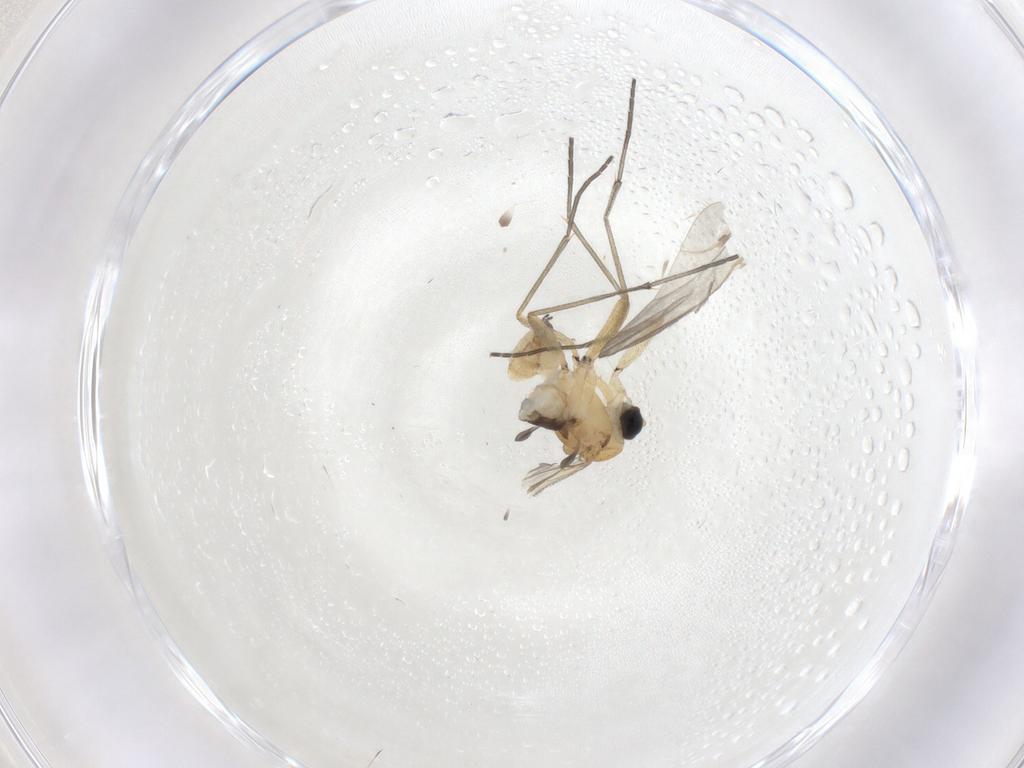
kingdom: Animalia
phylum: Arthropoda
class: Insecta
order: Diptera
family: Sciaridae
